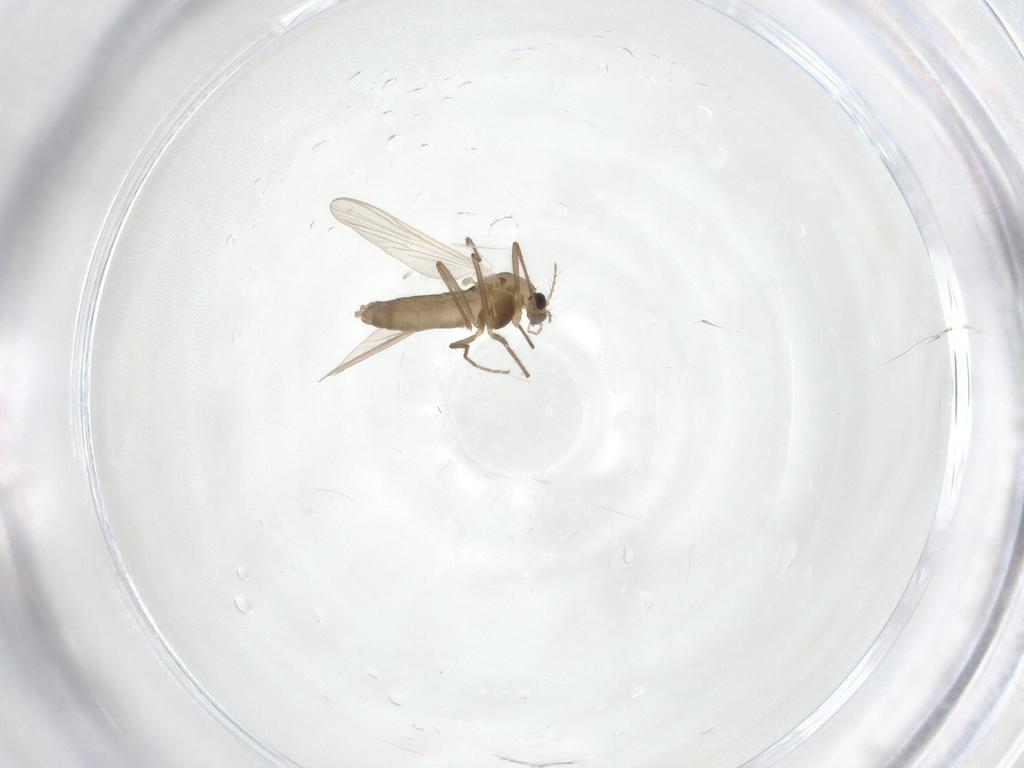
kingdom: Animalia
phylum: Arthropoda
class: Insecta
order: Diptera
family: Chironomidae
